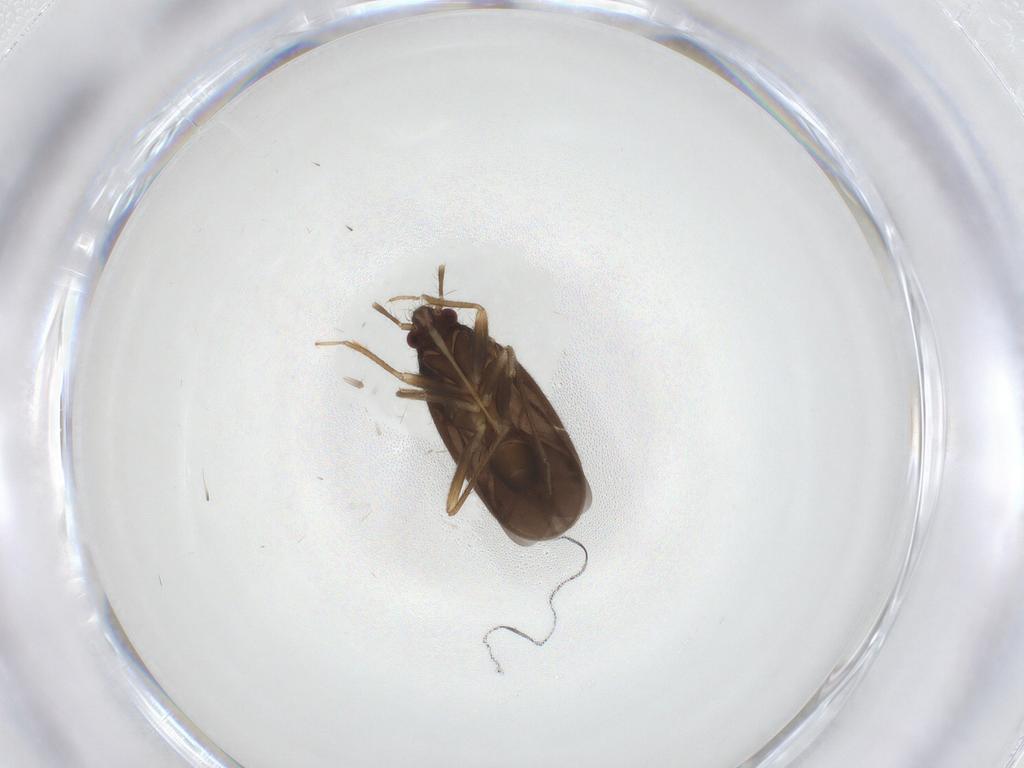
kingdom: Animalia
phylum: Arthropoda
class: Insecta
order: Hemiptera
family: Ceratocombidae
